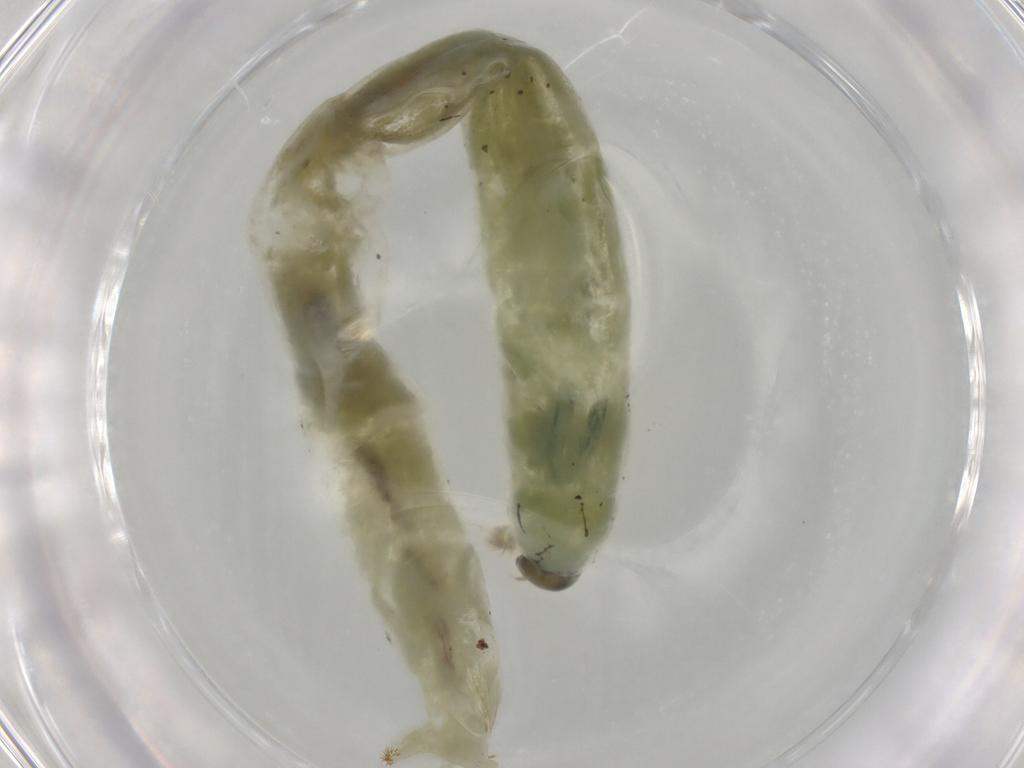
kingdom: Animalia
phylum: Arthropoda
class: Insecta
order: Diptera
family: Chironomidae
